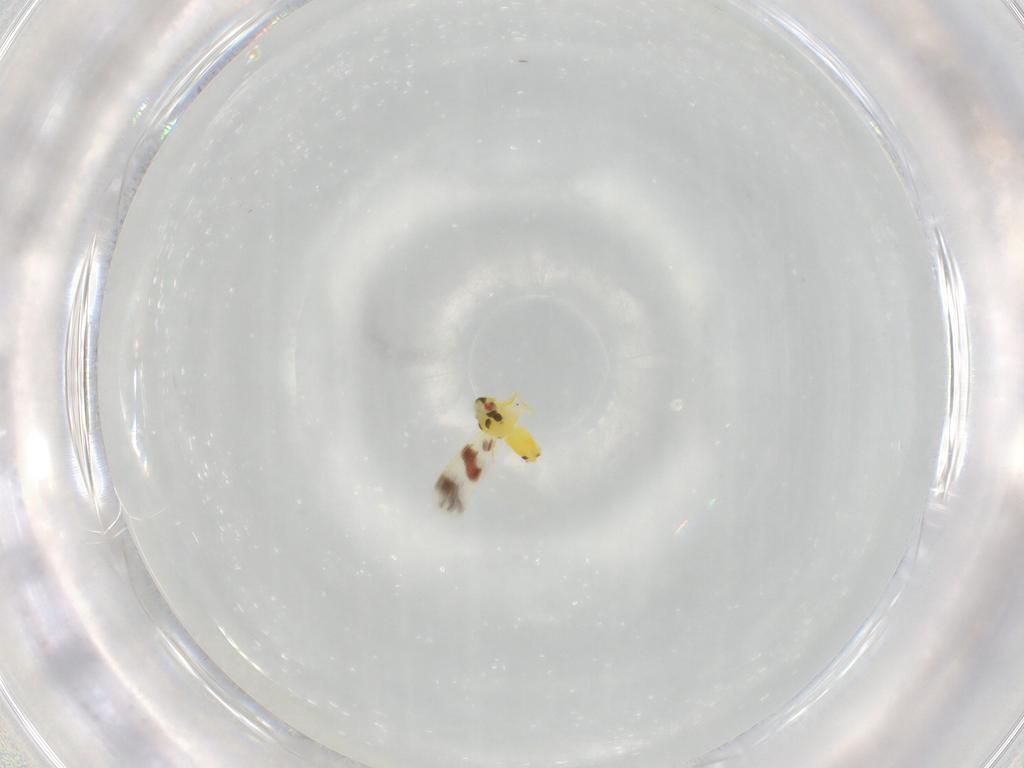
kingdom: Animalia
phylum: Arthropoda
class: Insecta
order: Hemiptera
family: Aleyrodidae
